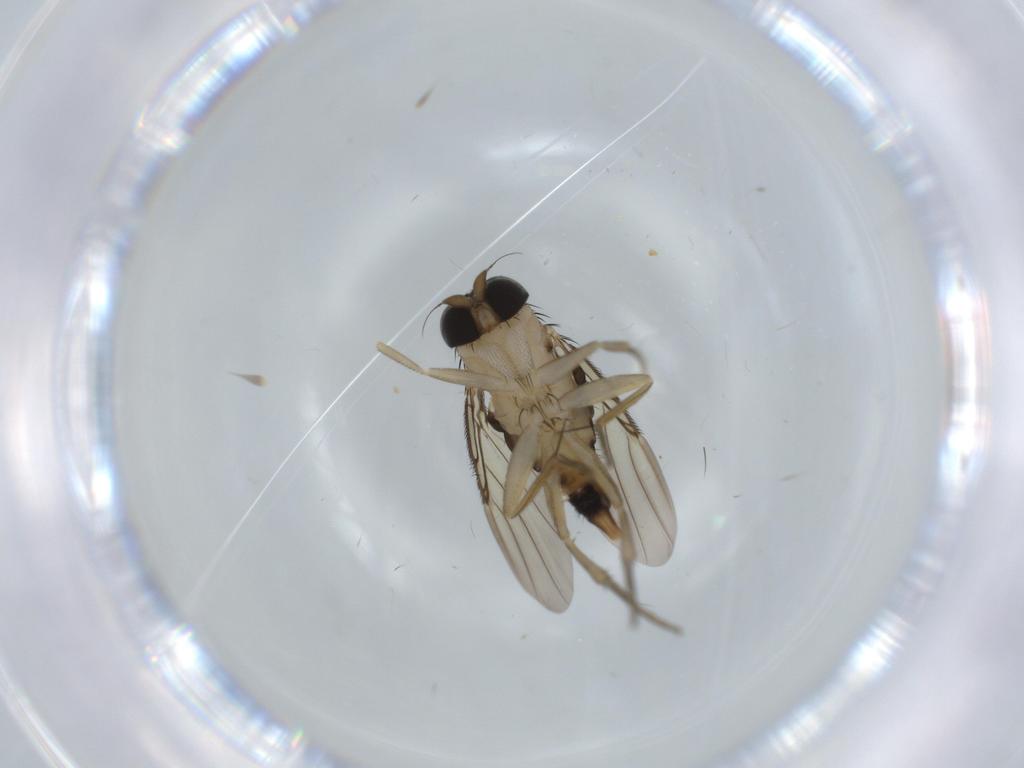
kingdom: Animalia
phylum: Arthropoda
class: Insecta
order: Diptera
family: Phoridae
